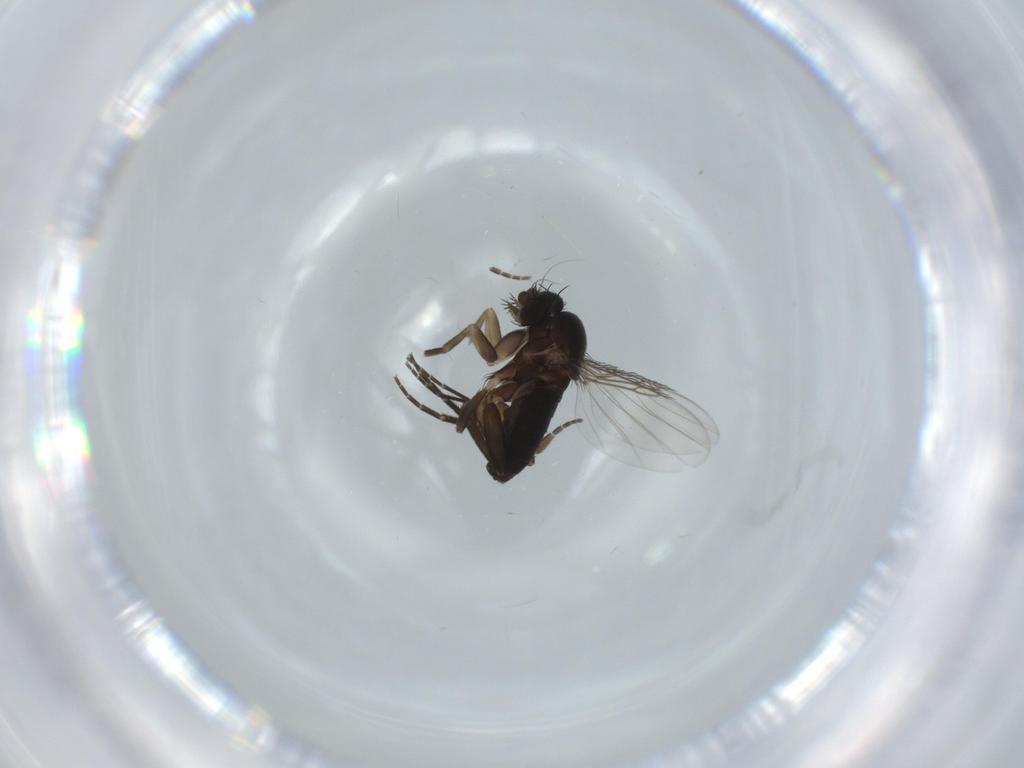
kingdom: Animalia
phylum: Arthropoda
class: Insecta
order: Diptera
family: Phoridae
